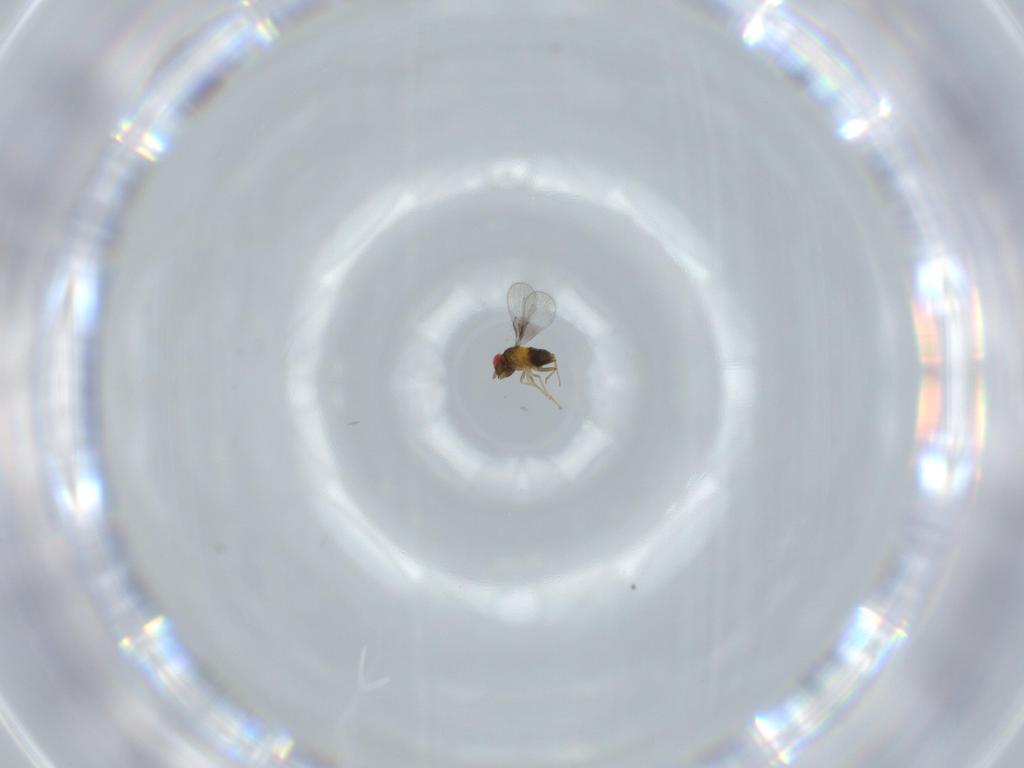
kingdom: Animalia
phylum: Arthropoda
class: Insecta
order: Hymenoptera
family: Trichogrammatidae
